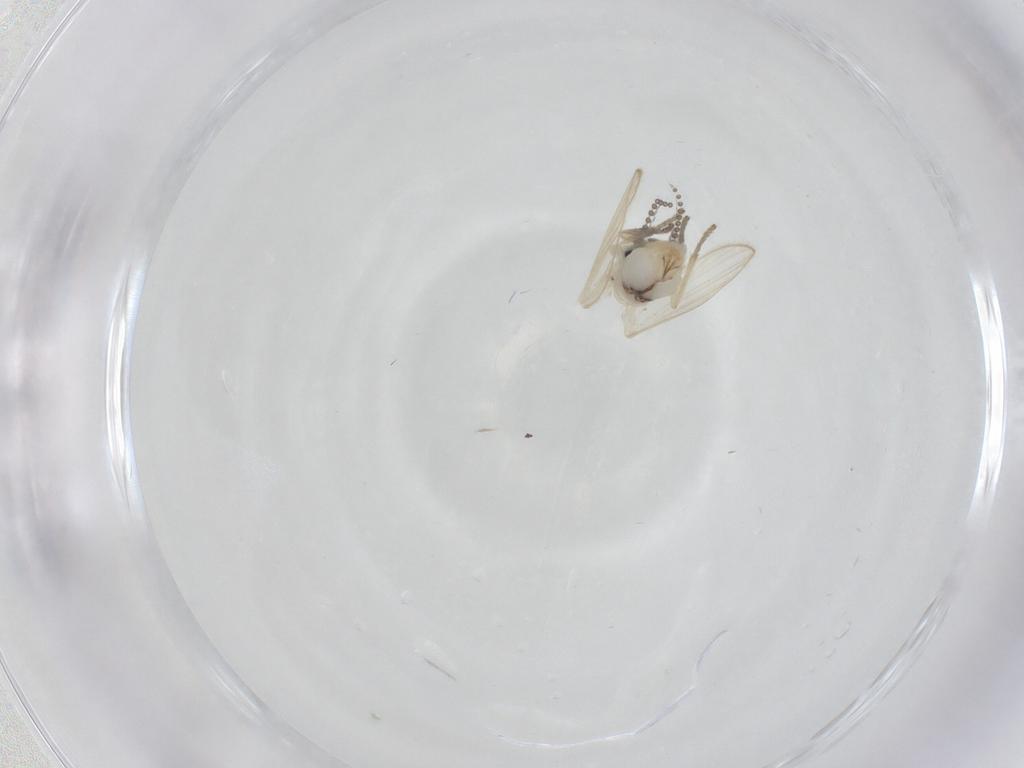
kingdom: Animalia
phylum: Arthropoda
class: Insecta
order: Diptera
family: Psychodidae
